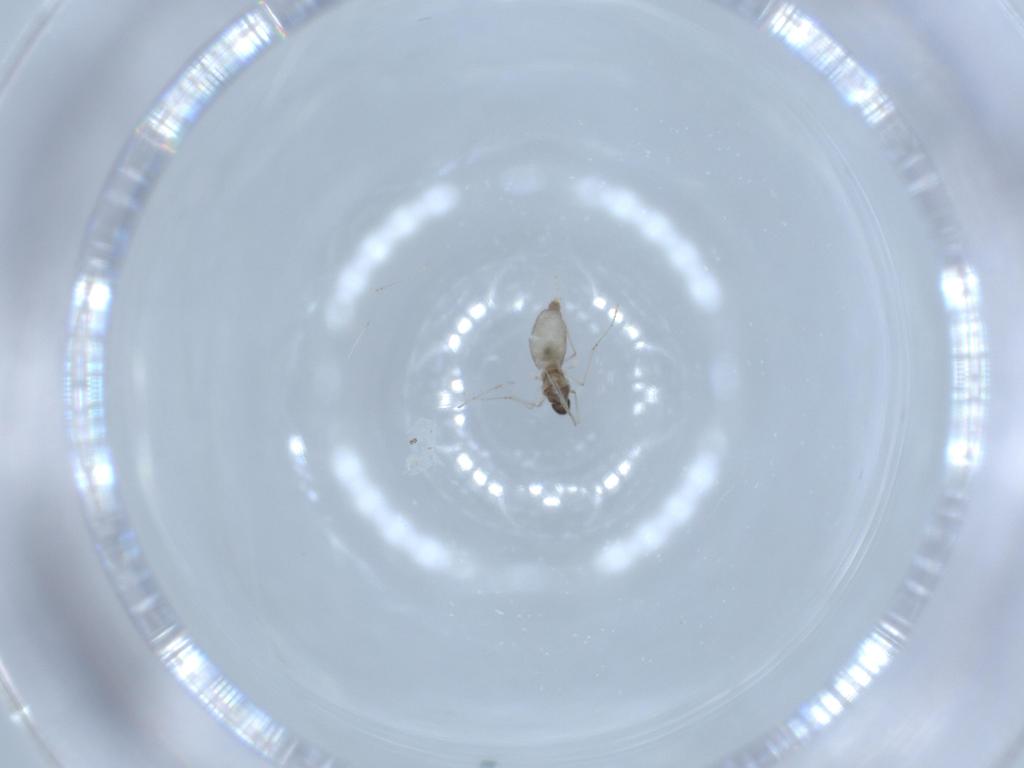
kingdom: Animalia
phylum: Arthropoda
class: Insecta
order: Diptera
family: Cecidomyiidae
